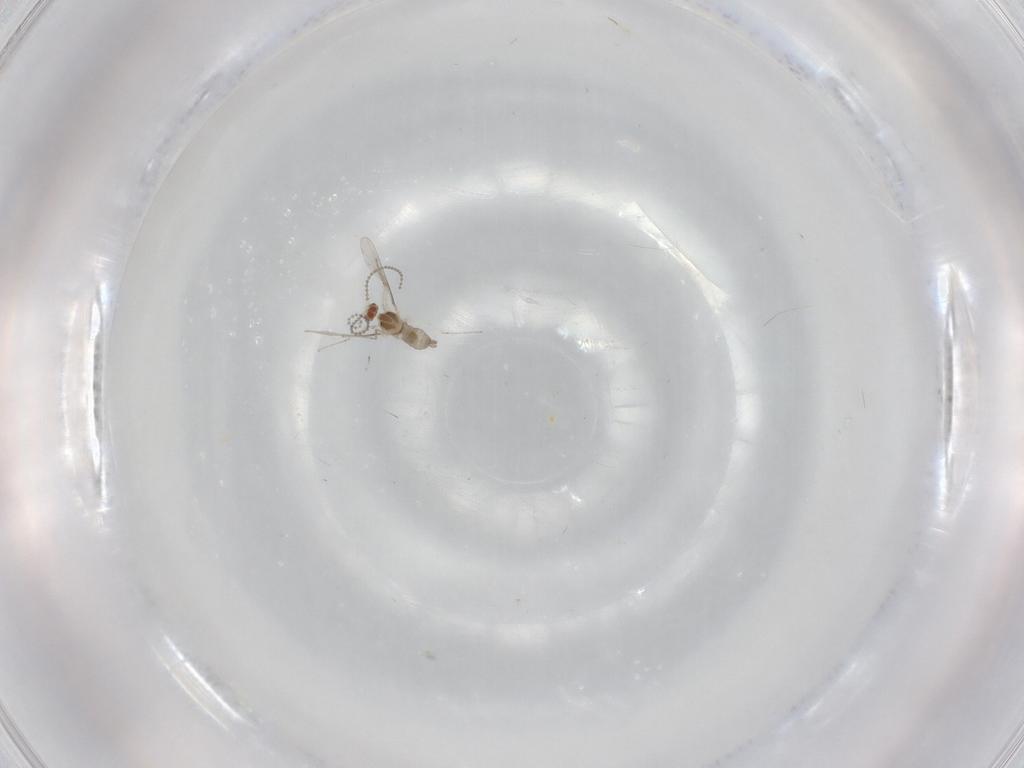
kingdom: Animalia
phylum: Arthropoda
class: Insecta
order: Diptera
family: Cecidomyiidae
